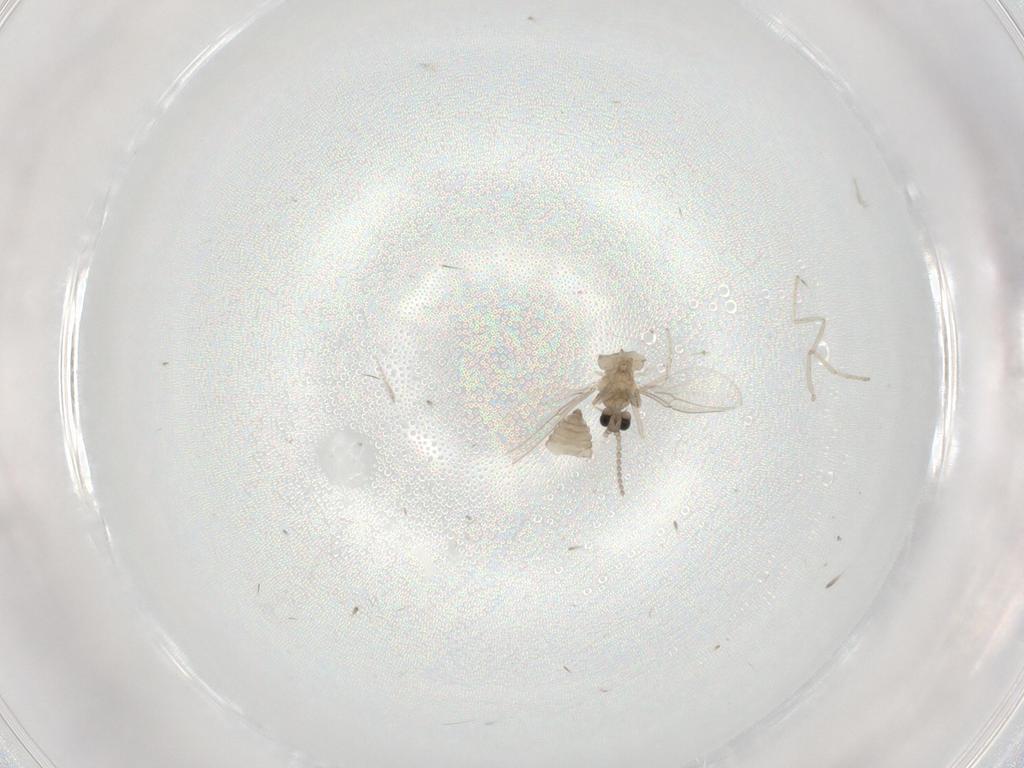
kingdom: Animalia
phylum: Arthropoda
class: Insecta
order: Diptera
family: Cecidomyiidae
